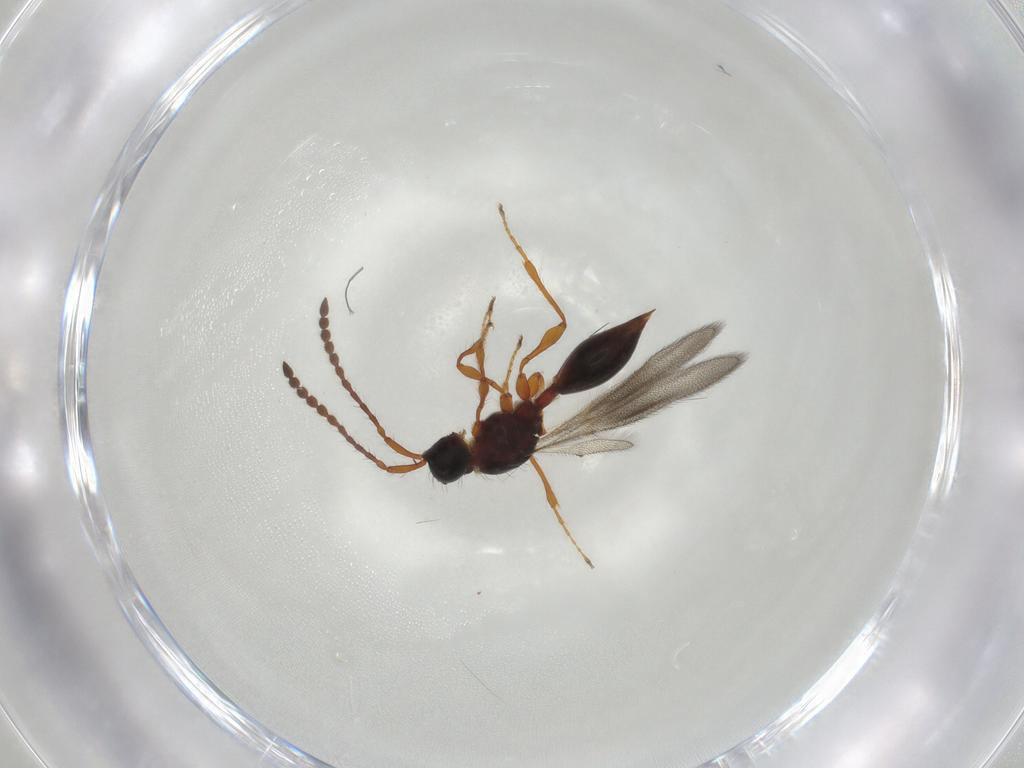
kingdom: Animalia
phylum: Arthropoda
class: Insecta
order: Hymenoptera
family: Diapriidae
